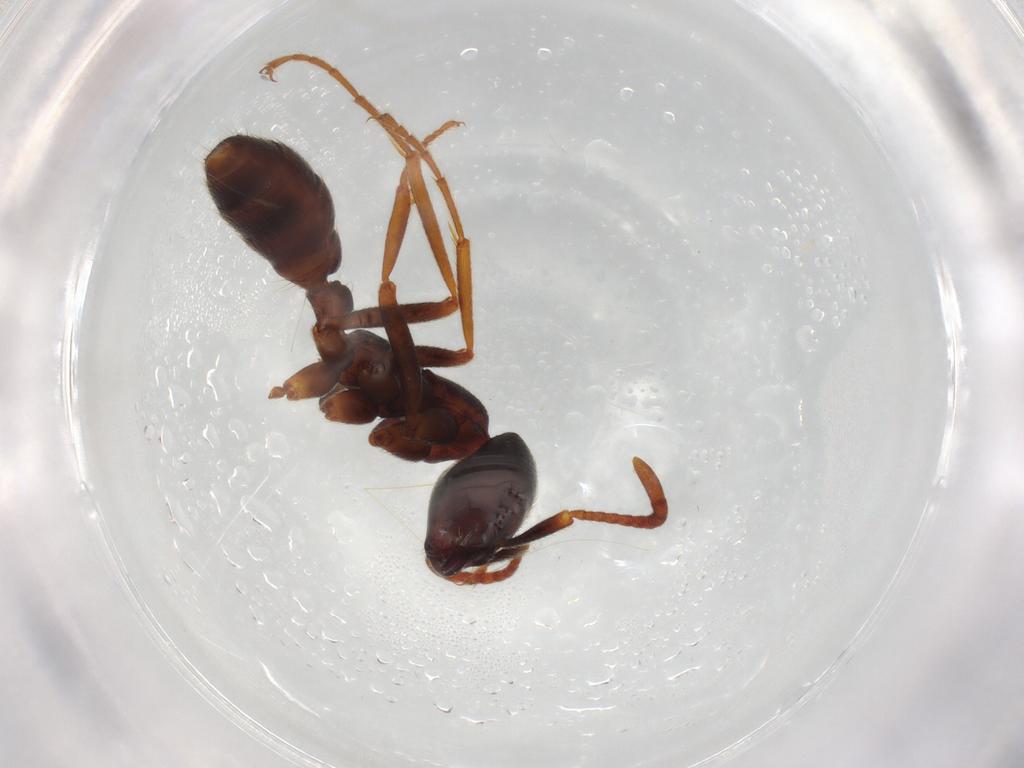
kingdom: Animalia
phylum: Arthropoda
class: Insecta
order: Hymenoptera
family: Formicidae
